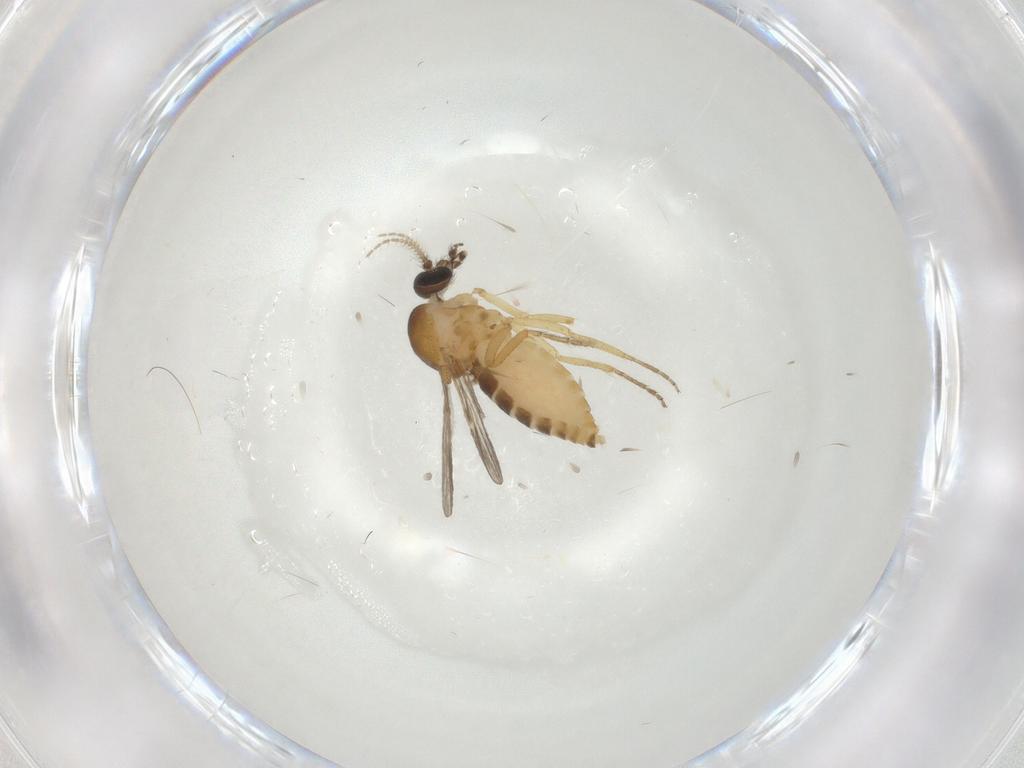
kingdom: Animalia
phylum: Arthropoda
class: Insecta
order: Diptera
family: Ceratopogonidae
